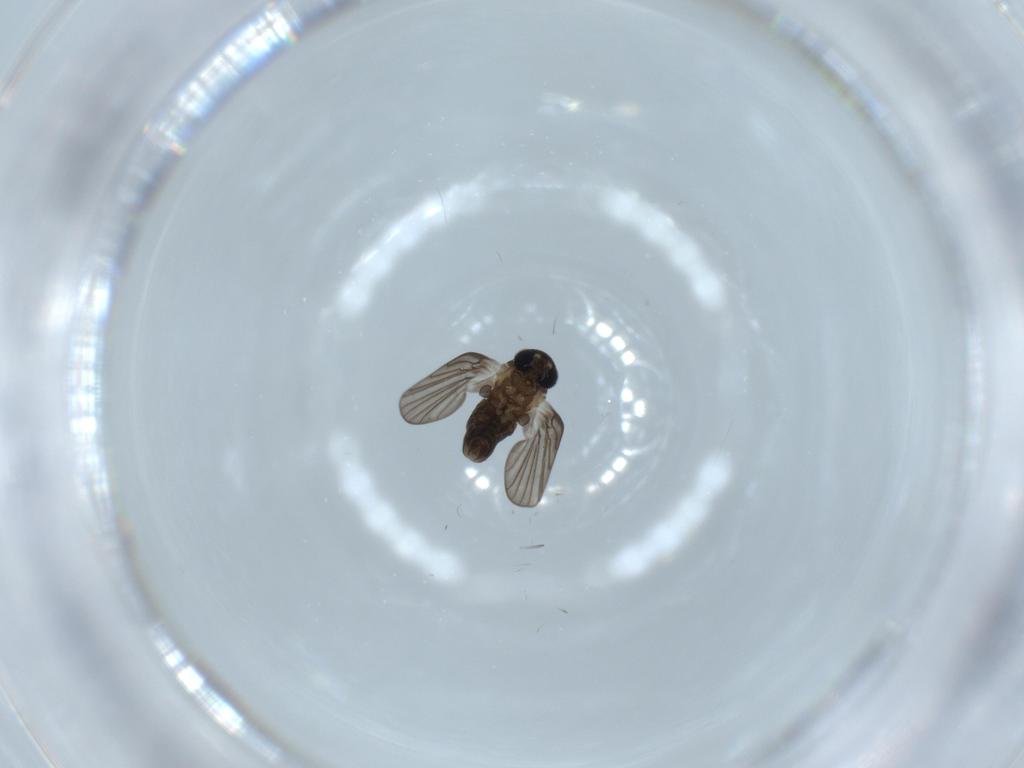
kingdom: Animalia
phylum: Arthropoda
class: Insecta
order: Diptera
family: Psychodidae
